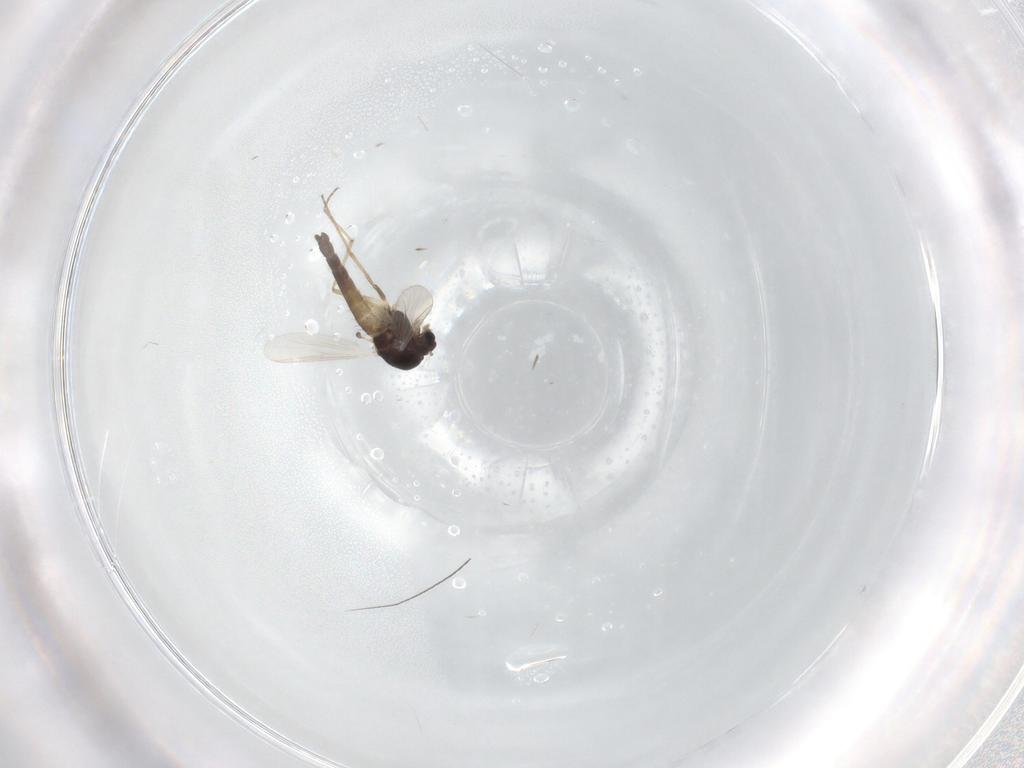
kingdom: Animalia
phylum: Arthropoda
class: Insecta
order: Diptera
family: Chironomidae
